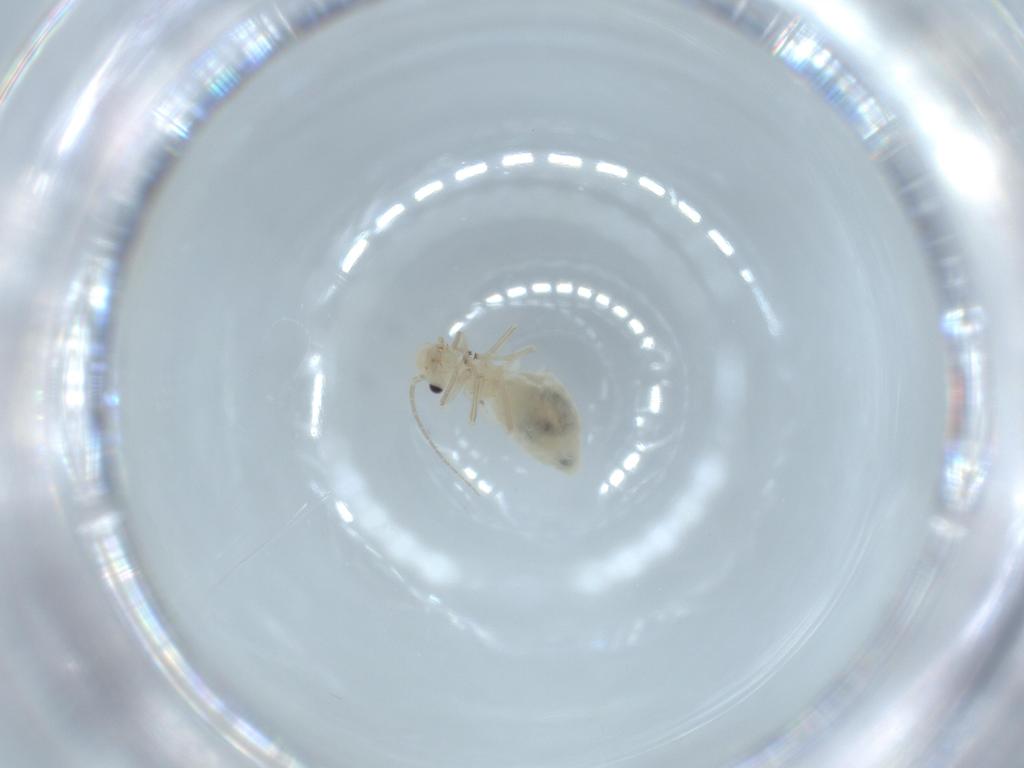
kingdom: Animalia
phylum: Arthropoda
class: Insecta
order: Psocodea
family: Caeciliusidae
